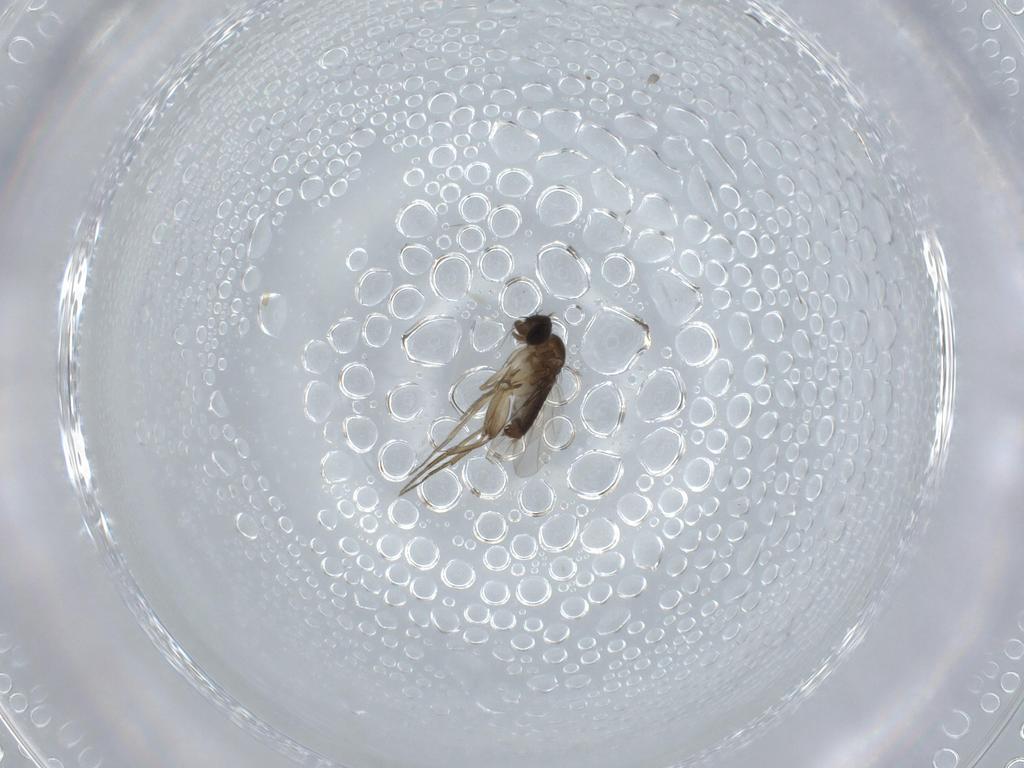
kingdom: Animalia
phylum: Arthropoda
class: Insecta
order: Diptera
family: Phoridae
